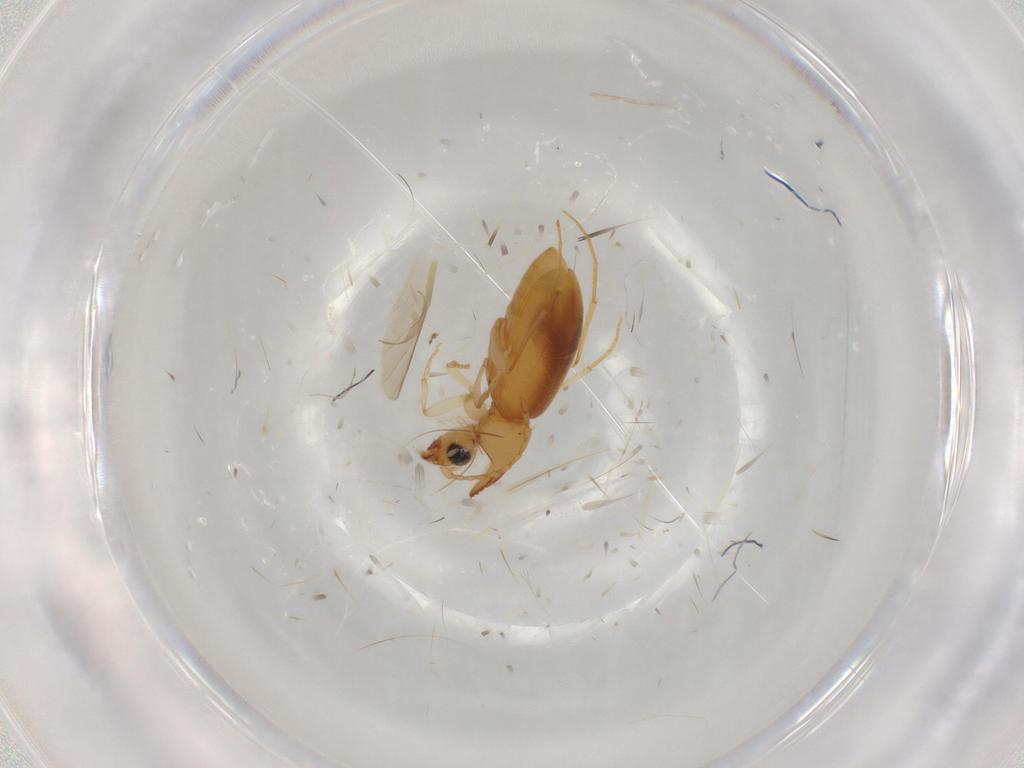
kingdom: Animalia
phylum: Arthropoda
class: Insecta
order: Coleoptera
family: Anthicidae
